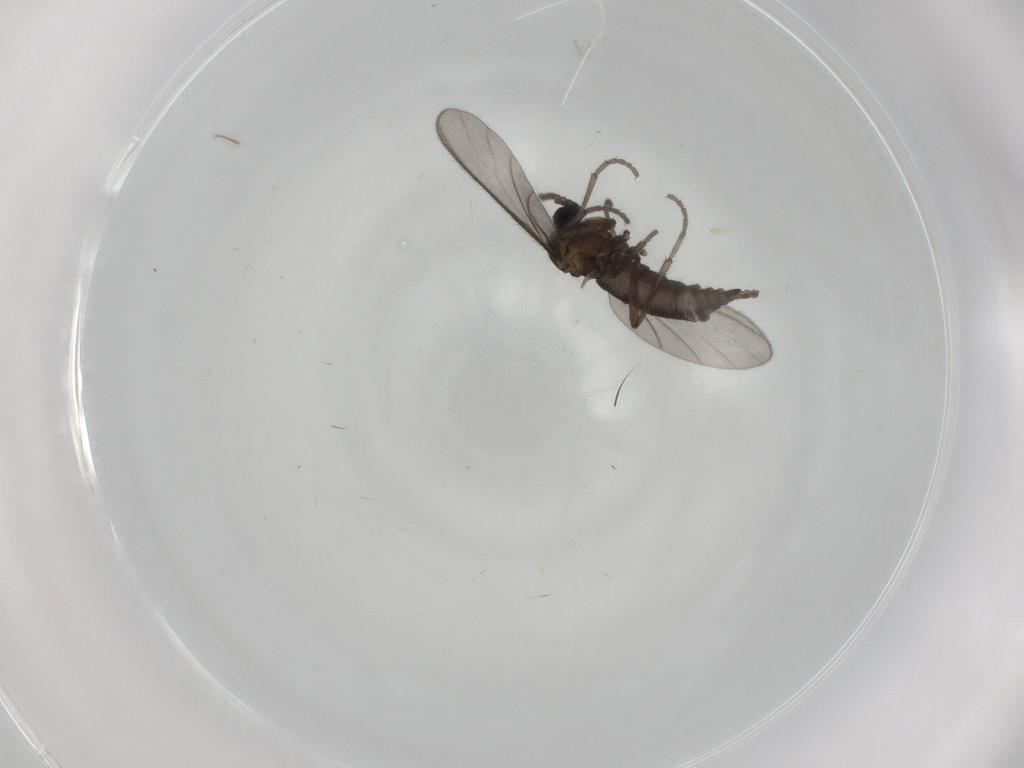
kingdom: Animalia
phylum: Arthropoda
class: Insecta
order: Diptera
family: Sciaridae
